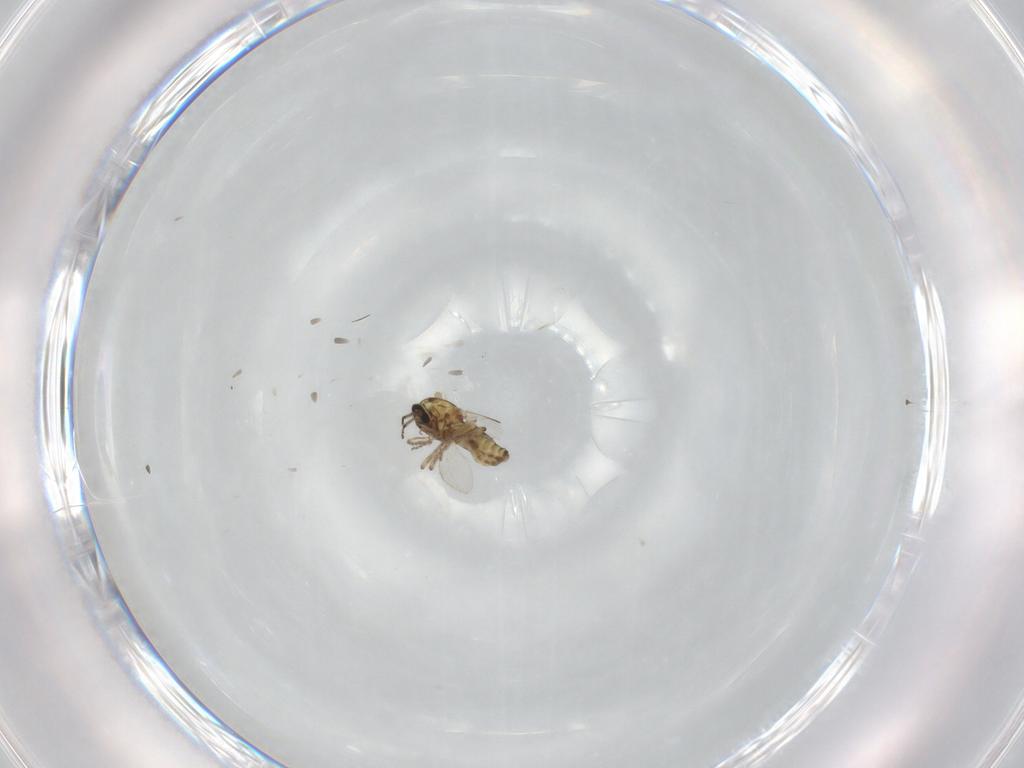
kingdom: Animalia
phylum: Arthropoda
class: Insecta
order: Diptera
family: Ceratopogonidae
